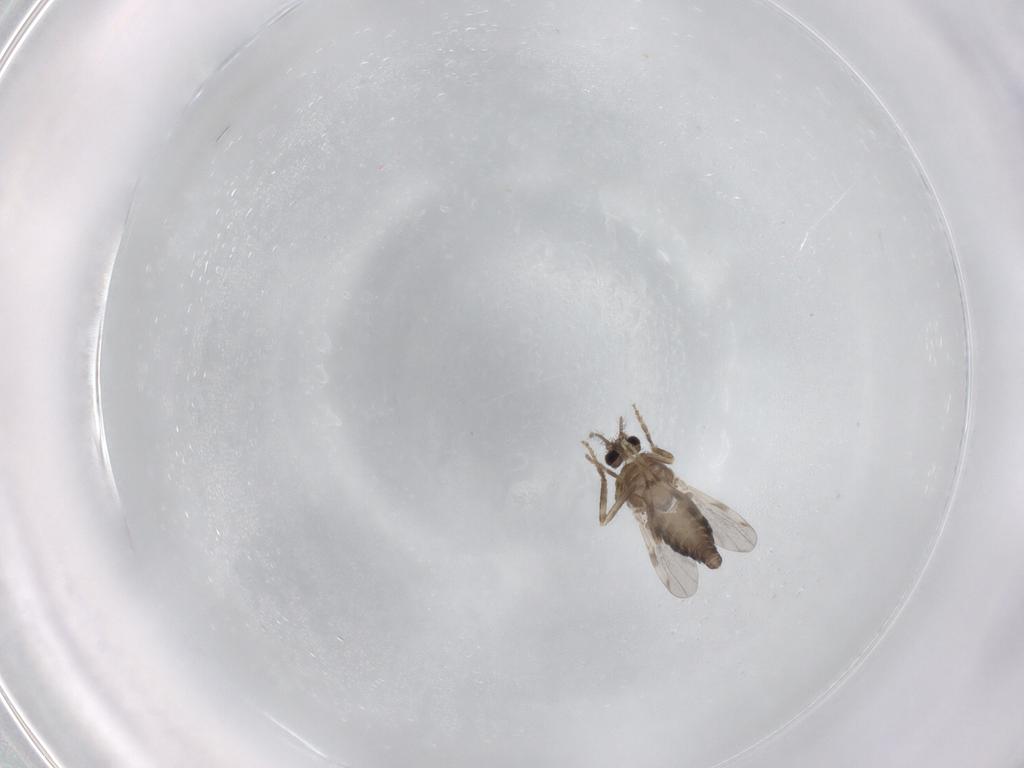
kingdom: Animalia
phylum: Arthropoda
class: Insecta
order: Diptera
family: Ceratopogonidae
